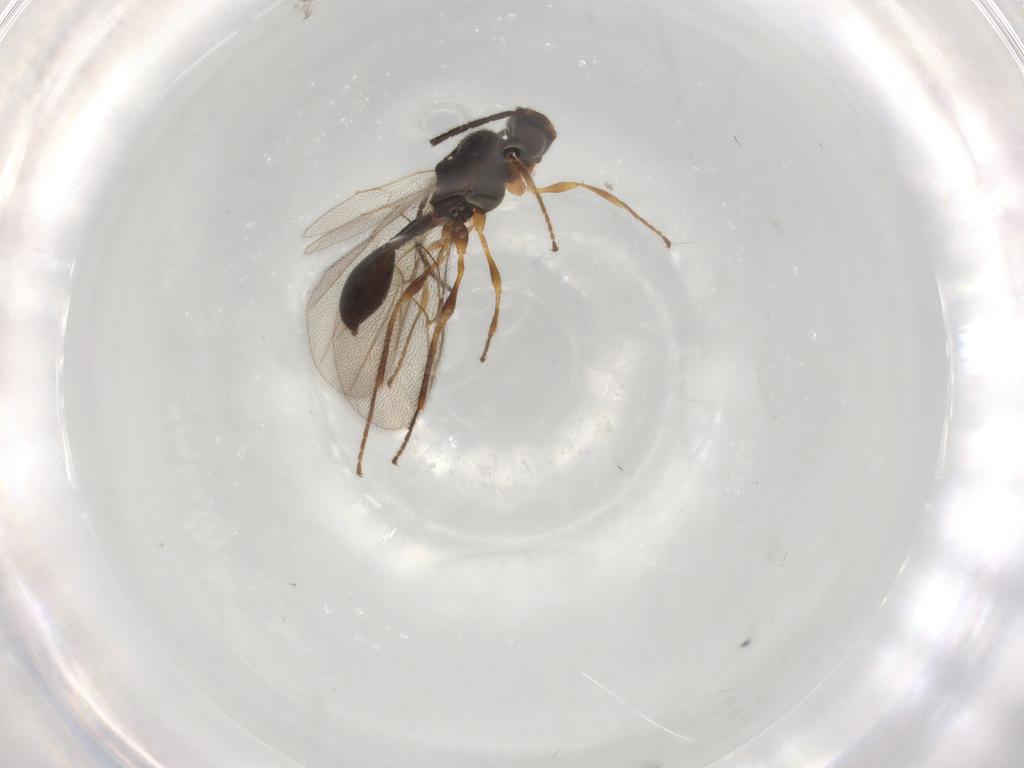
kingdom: Animalia
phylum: Arthropoda
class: Insecta
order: Hymenoptera
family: Diapriidae
